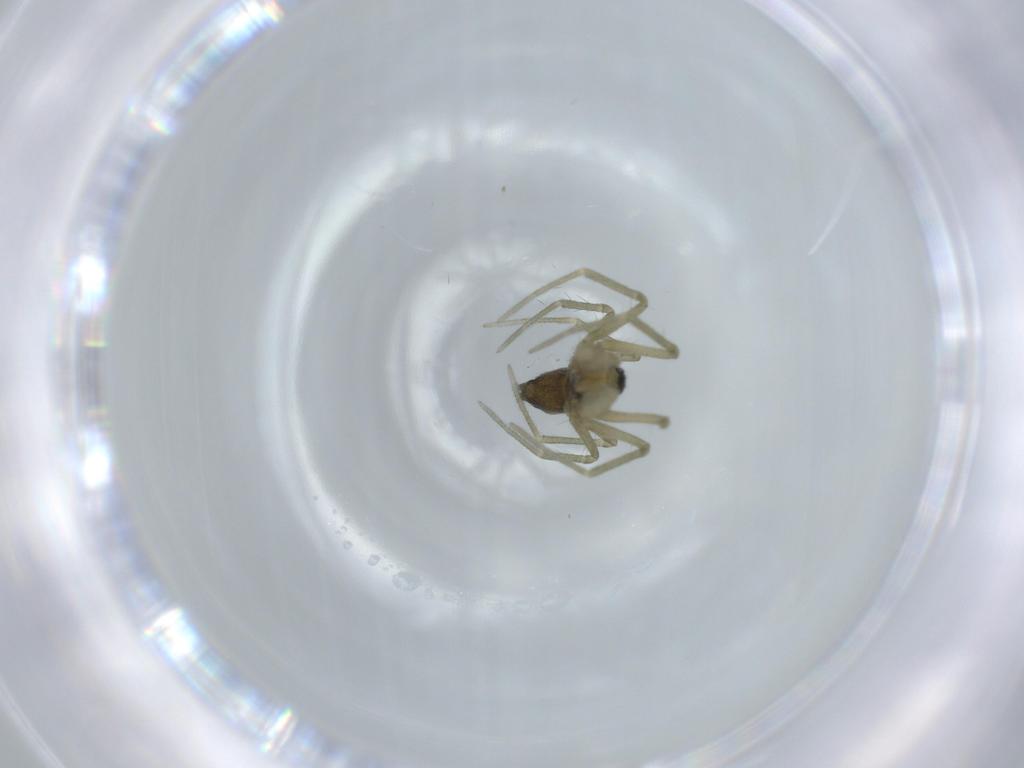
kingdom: Animalia
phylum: Arthropoda
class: Arachnida
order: Araneae
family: Linyphiidae
